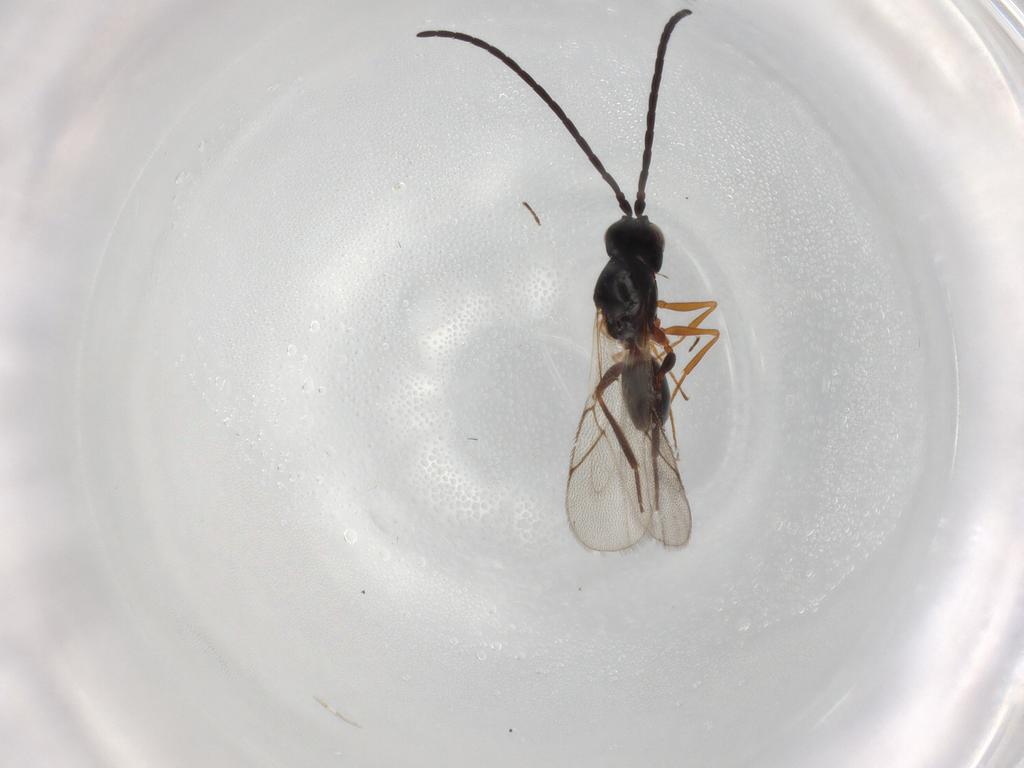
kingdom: Animalia
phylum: Arthropoda
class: Insecta
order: Hymenoptera
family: Figitidae
